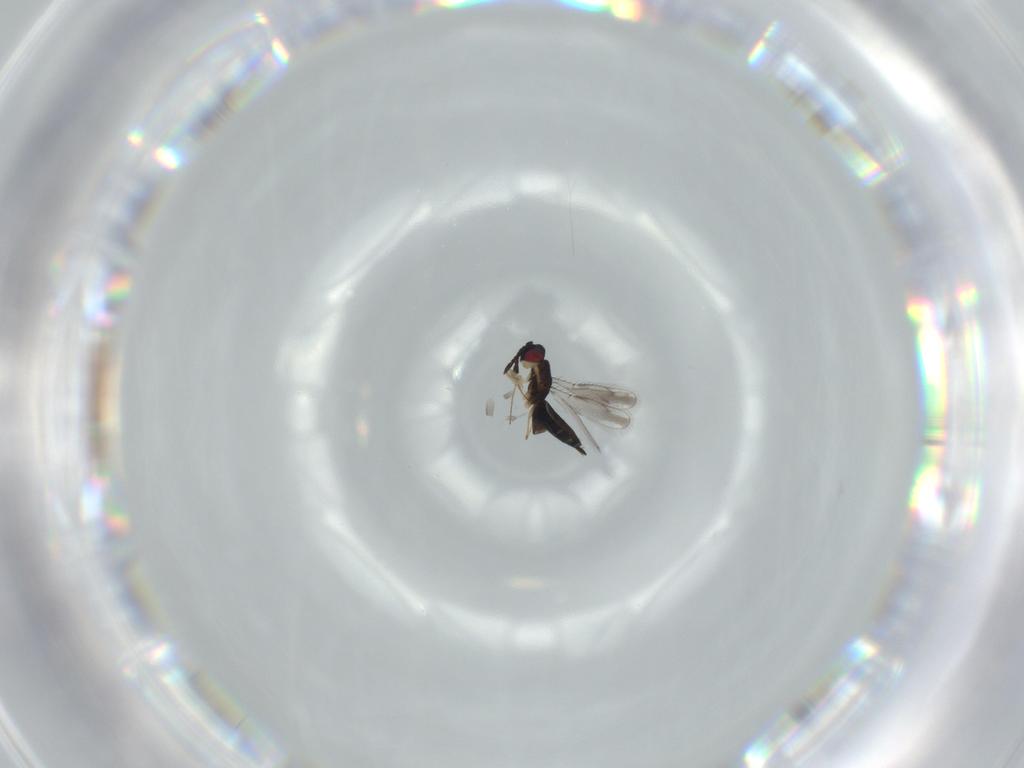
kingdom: Animalia
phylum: Arthropoda
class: Insecta
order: Hymenoptera
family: Pteromalidae
